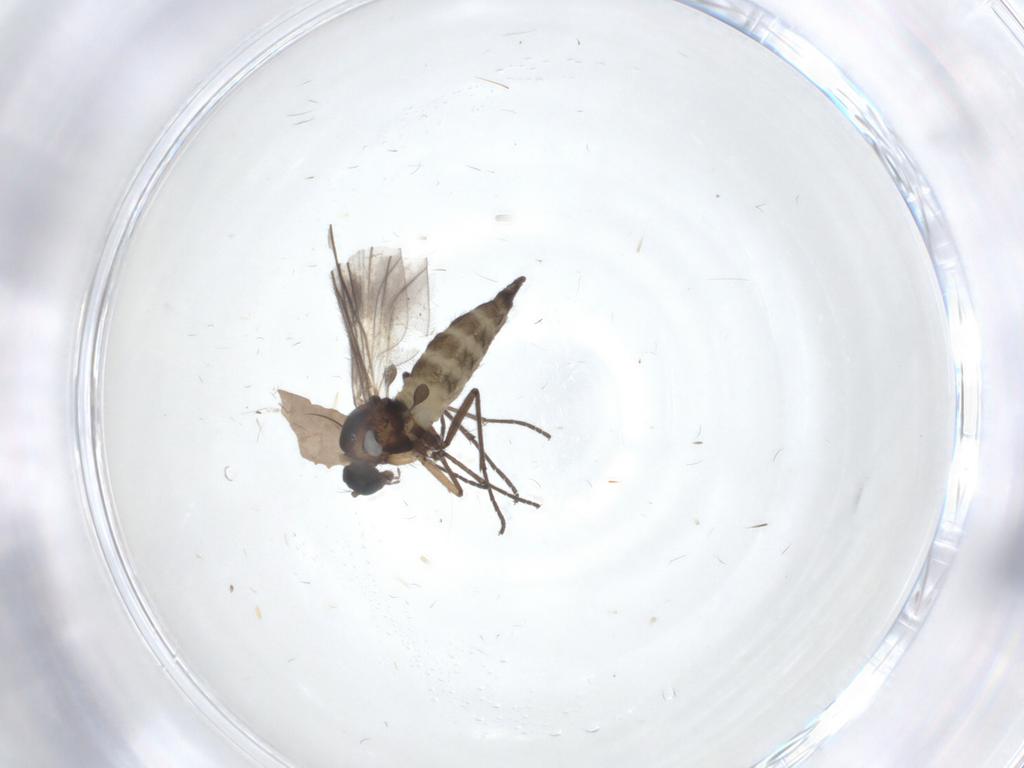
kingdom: Animalia
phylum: Arthropoda
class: Insecta
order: Diptera
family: Sciaridae
